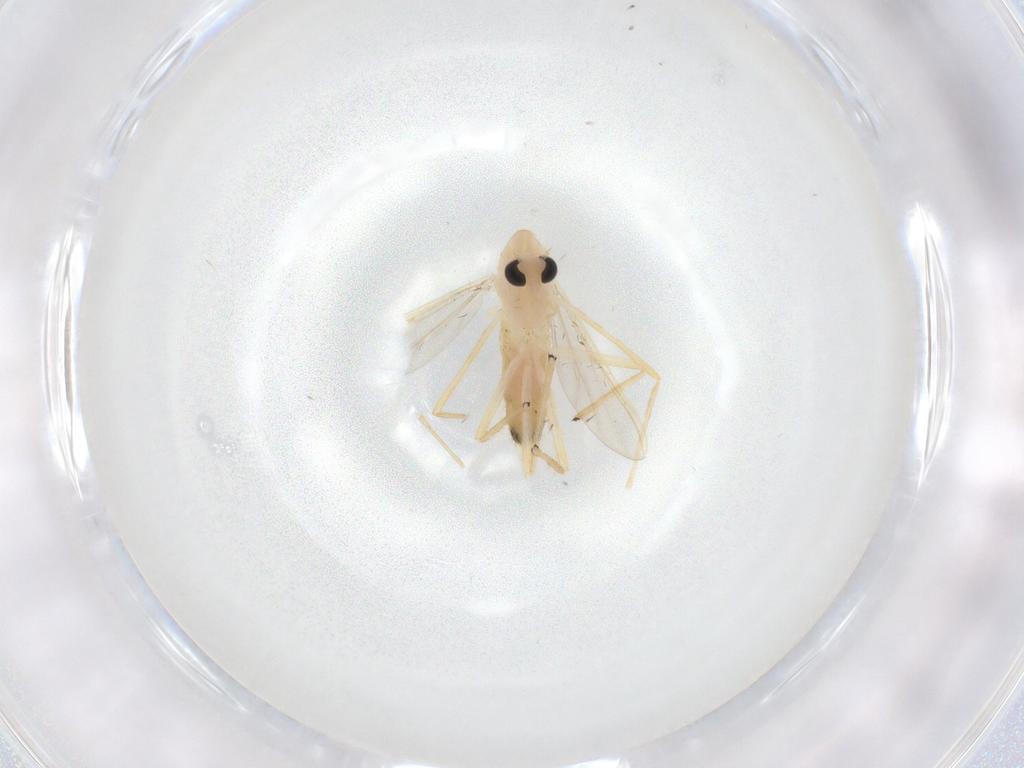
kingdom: Animalia
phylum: Arthropoda
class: Insecta
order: Diptera
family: Chironomidae
